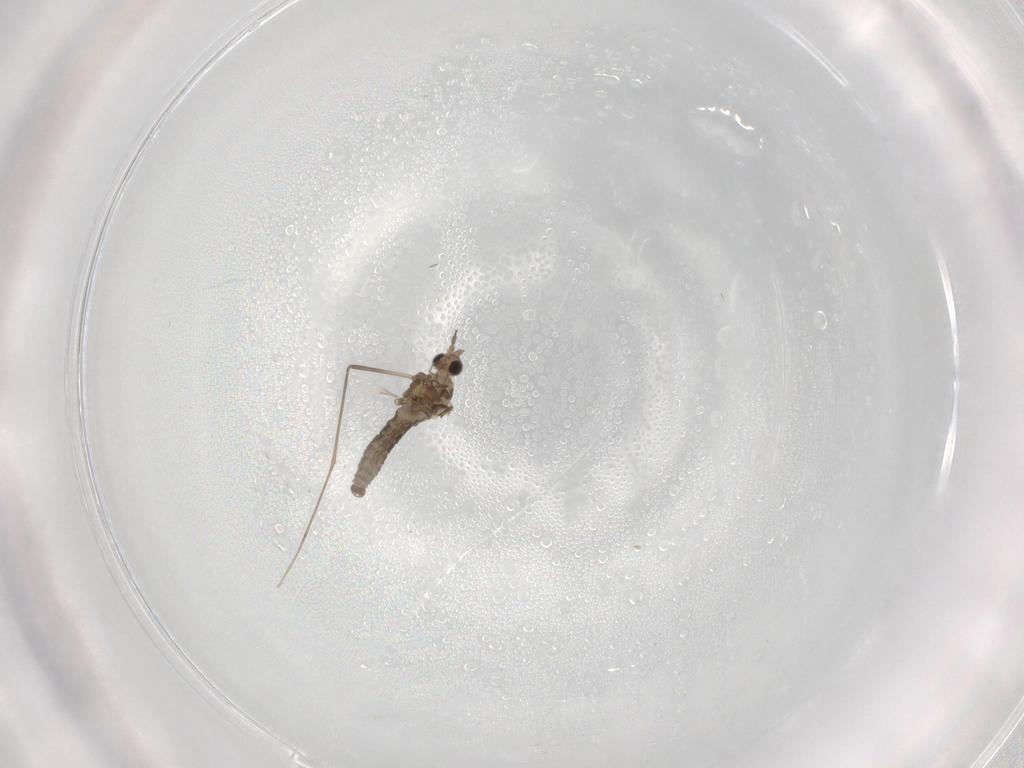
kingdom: Animalia
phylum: Arthropoda
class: Insecta
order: Diptera
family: Cecidomyiidae
